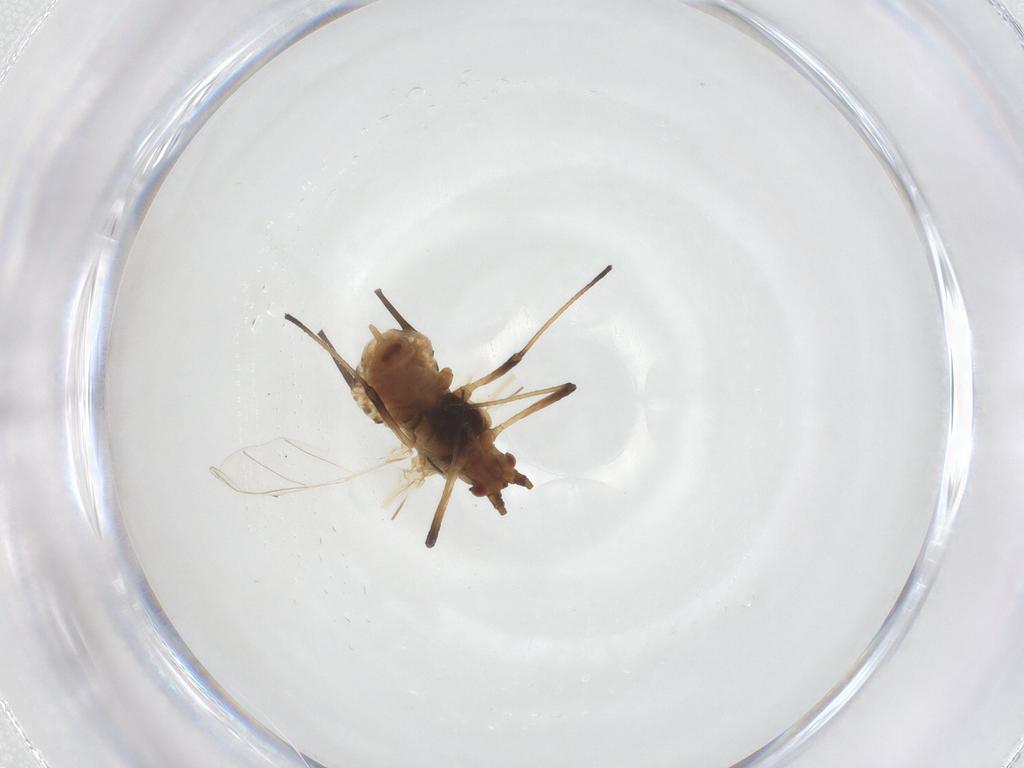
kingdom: Animalia
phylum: Arthropoda
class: Insecta
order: Hemiptera
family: Aphididae
